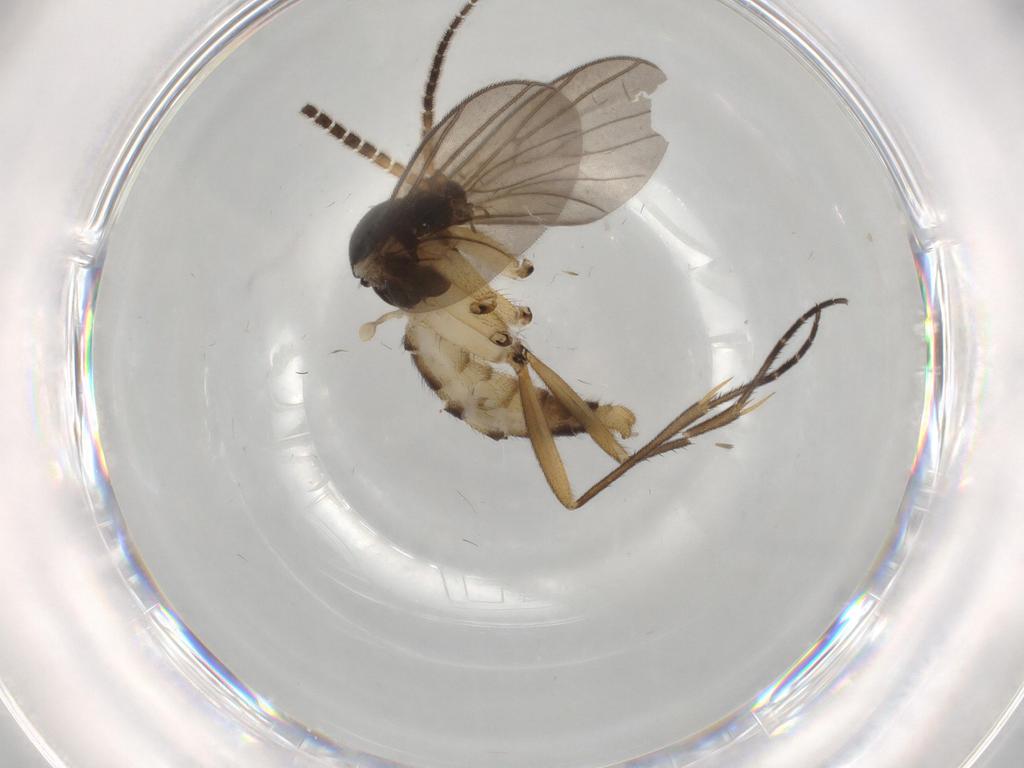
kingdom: Animalia
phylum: Arthropoda
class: Insecta
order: Diptera
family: Mycetophilidae
